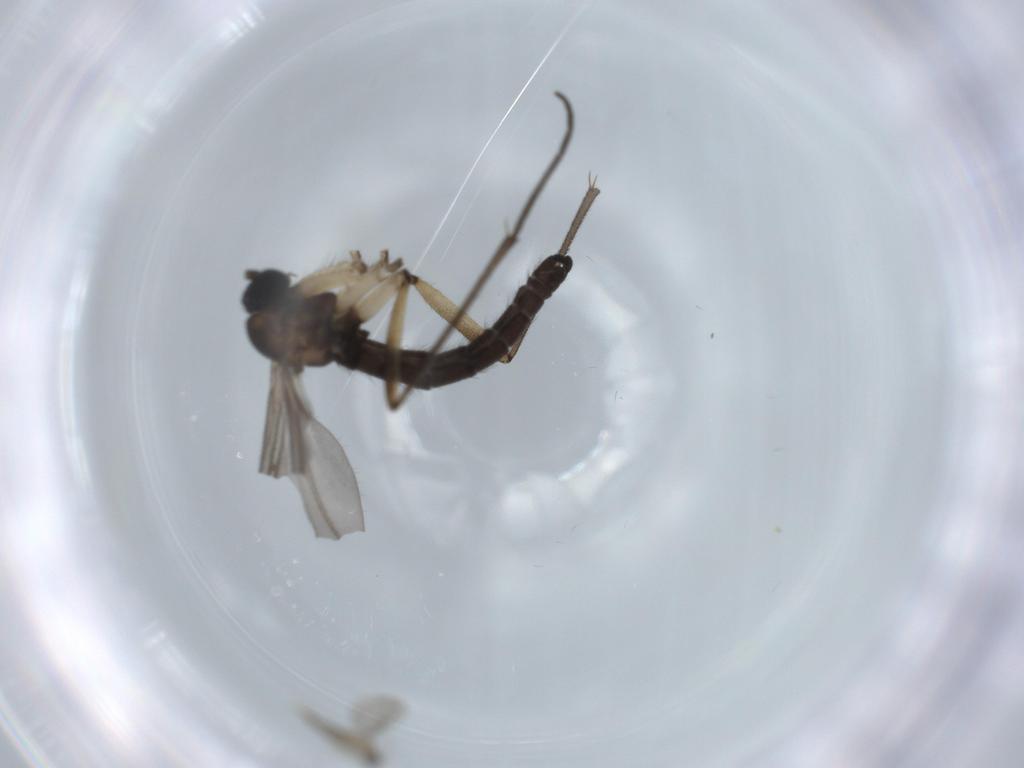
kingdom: Animalia
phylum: Arthropoda
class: Insecta
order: Diptera
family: Sciaridae
